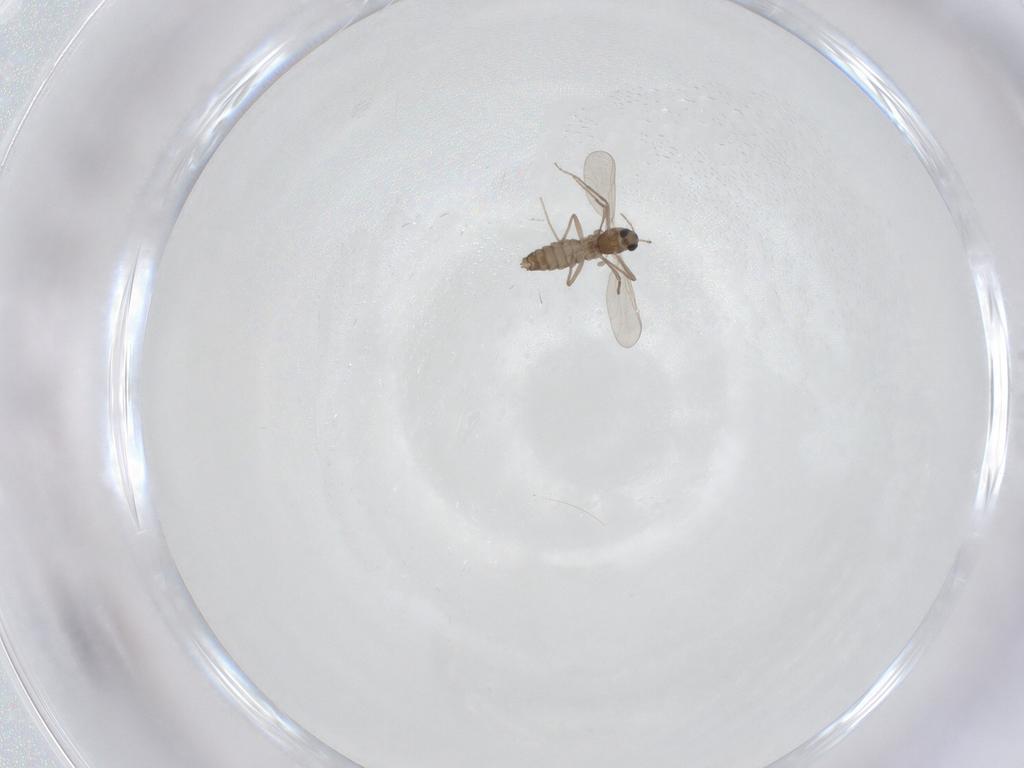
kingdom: Animalia
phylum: Arthropoda
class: Insecta
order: Diptera
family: Chironomidae
